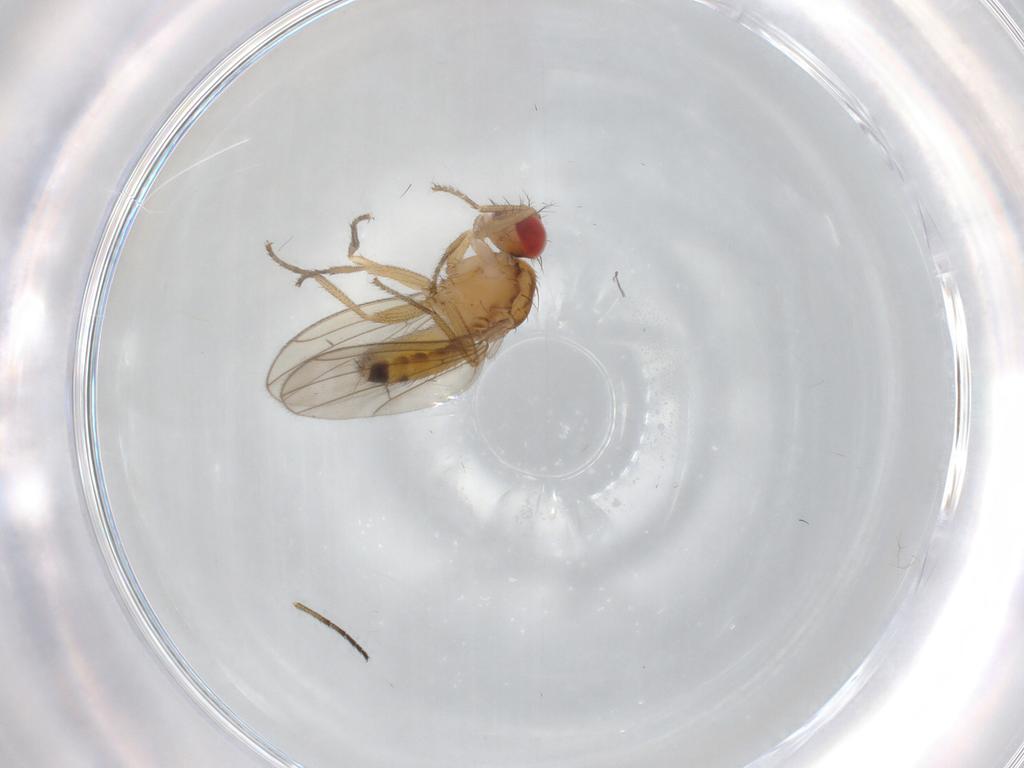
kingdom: Animalia
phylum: Arthropoda
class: Insecta
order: Diptera
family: Drosophilidae
